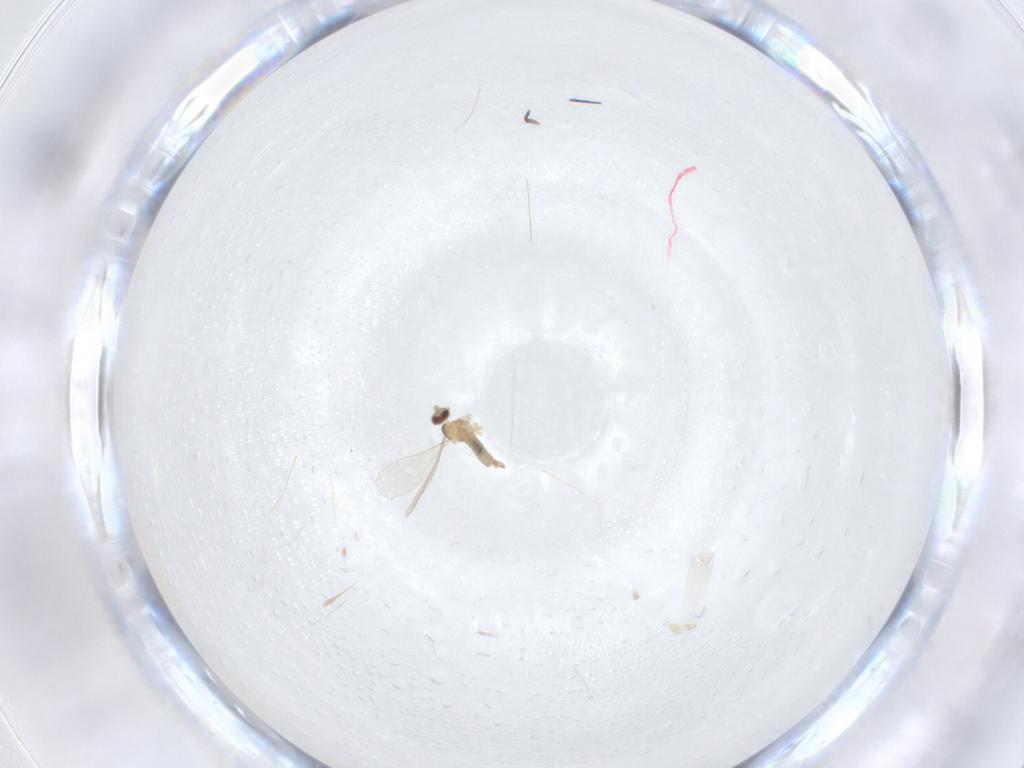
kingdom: Animalia
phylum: Arthropoda
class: Insecta
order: Diptera
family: Cecidomyiidae
